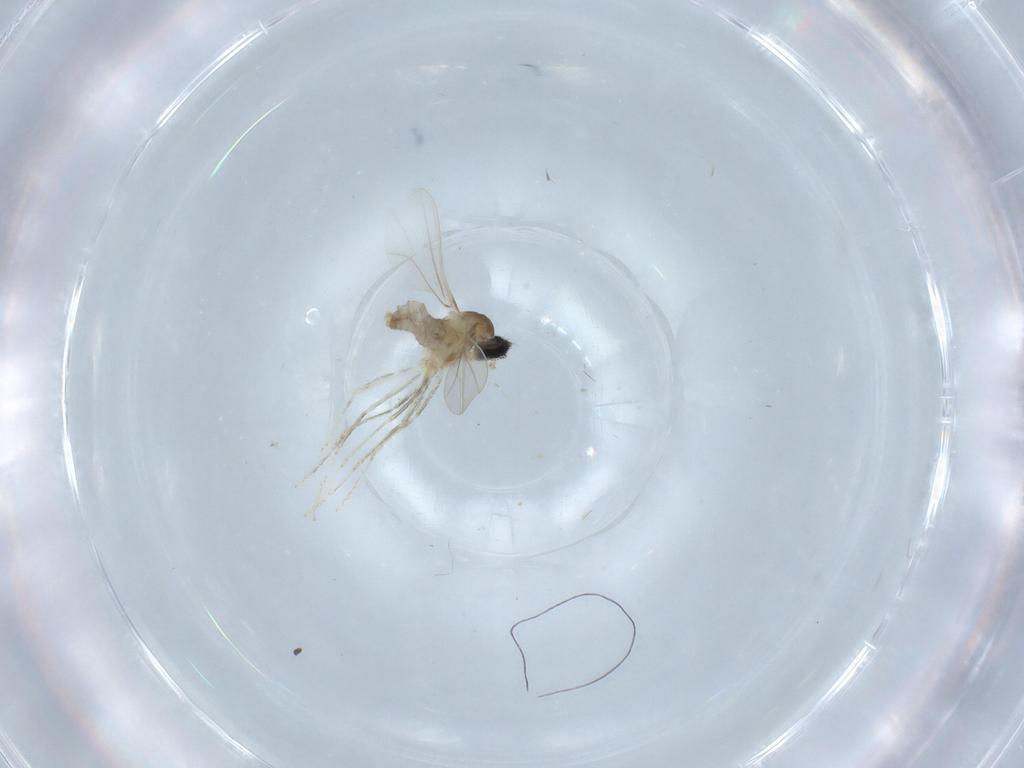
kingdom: Animalia
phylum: Arthropoda
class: Insecta
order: Diptera
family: Cecidomyiidae
